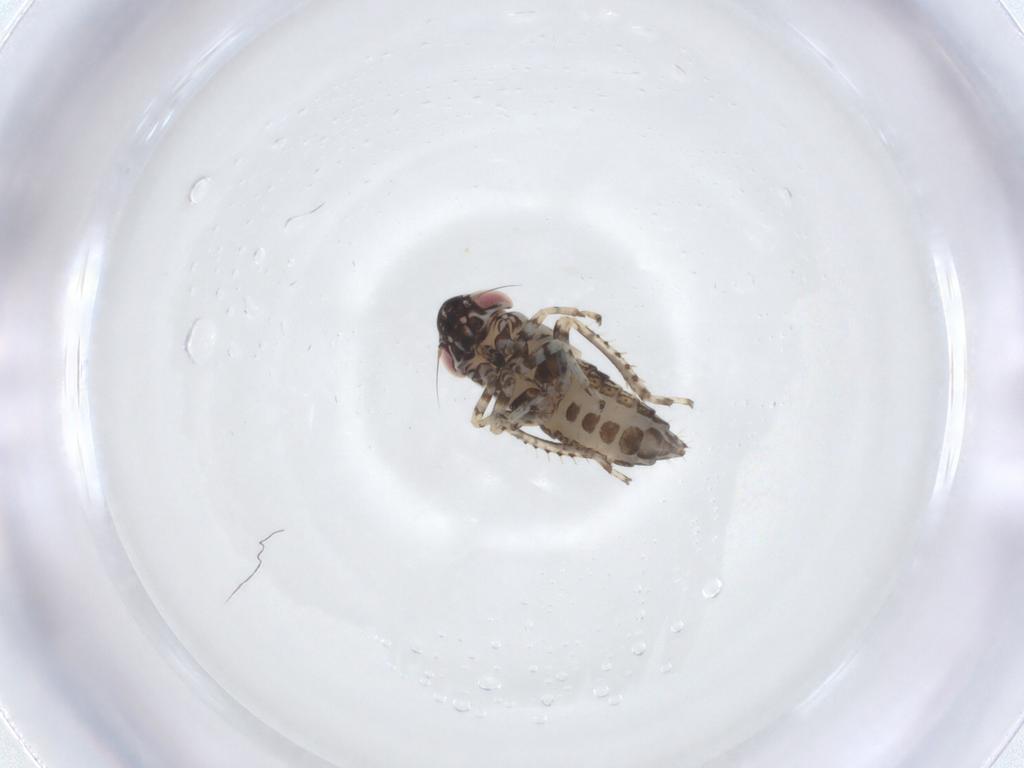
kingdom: Animalia
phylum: Arthropoda
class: Insecta
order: Hemiptera
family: Cicadellidae
